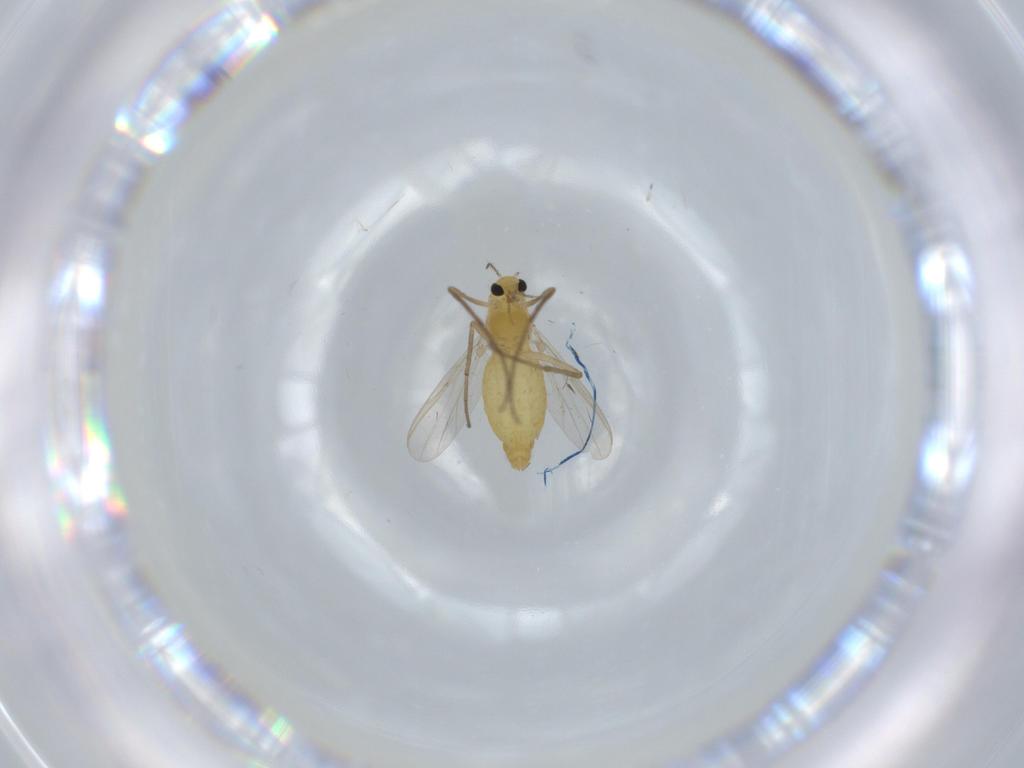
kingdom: Animalia
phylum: Arthropoda
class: Insecta
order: Diptera
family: Chironomidae
